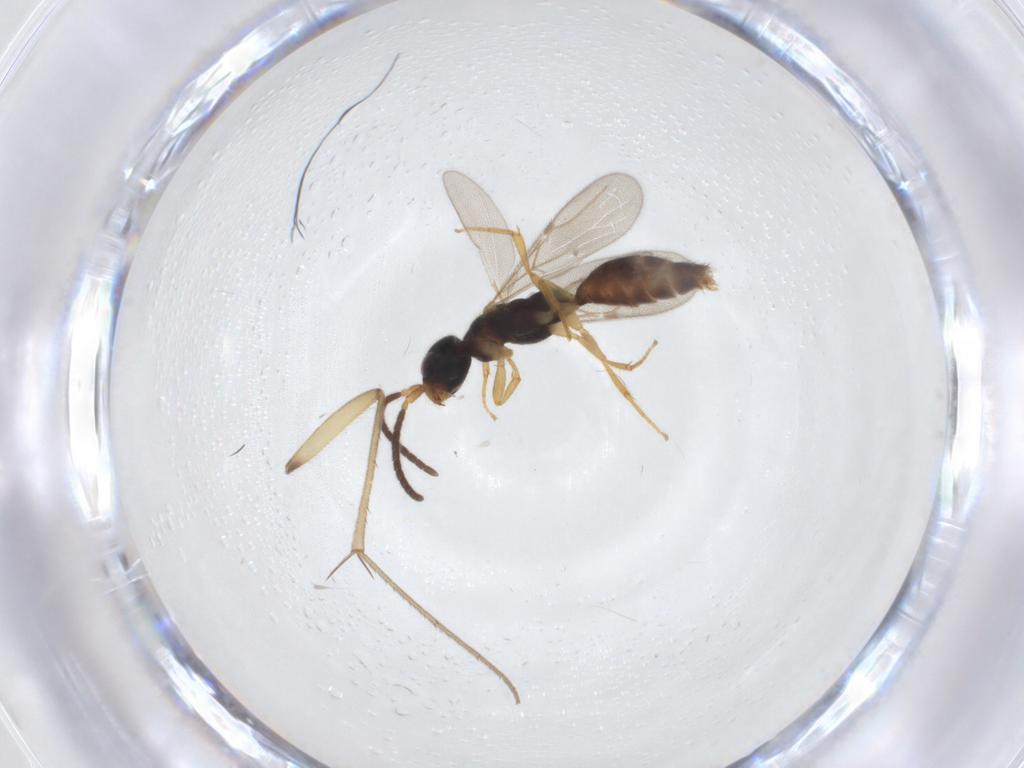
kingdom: Animalia
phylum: Arthropoda
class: Insecta
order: Hymenoptera
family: Bethylidae
